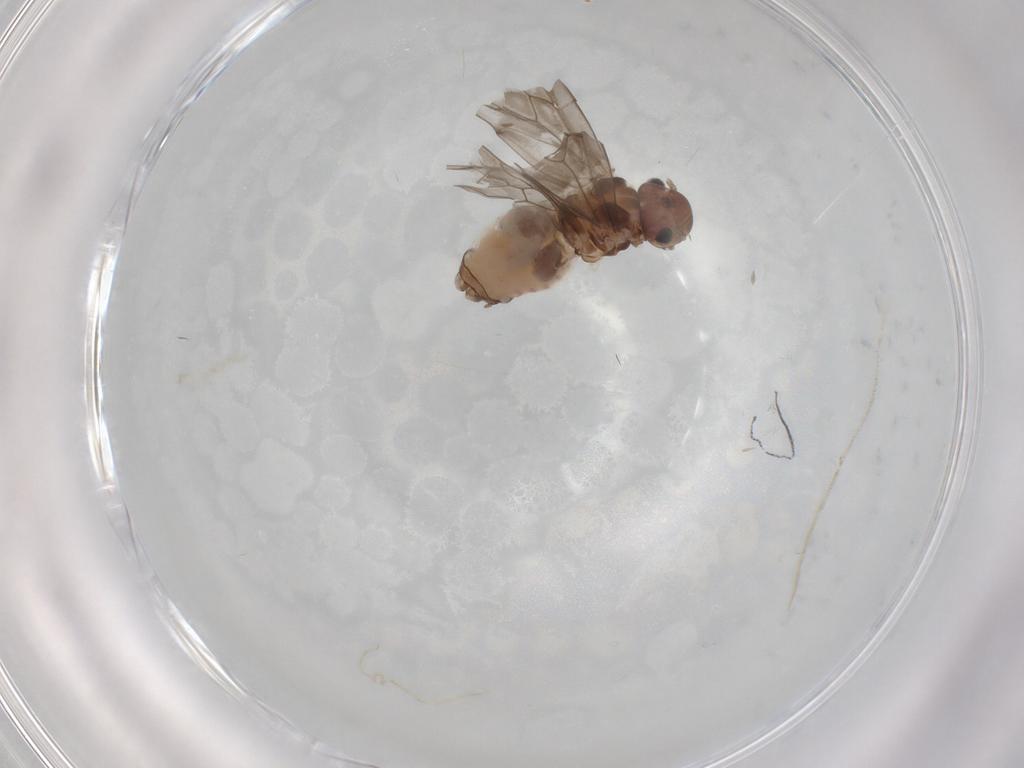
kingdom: Animalia
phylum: Arthropoda
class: Insecta
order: Psocodea
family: Peripsocidae
